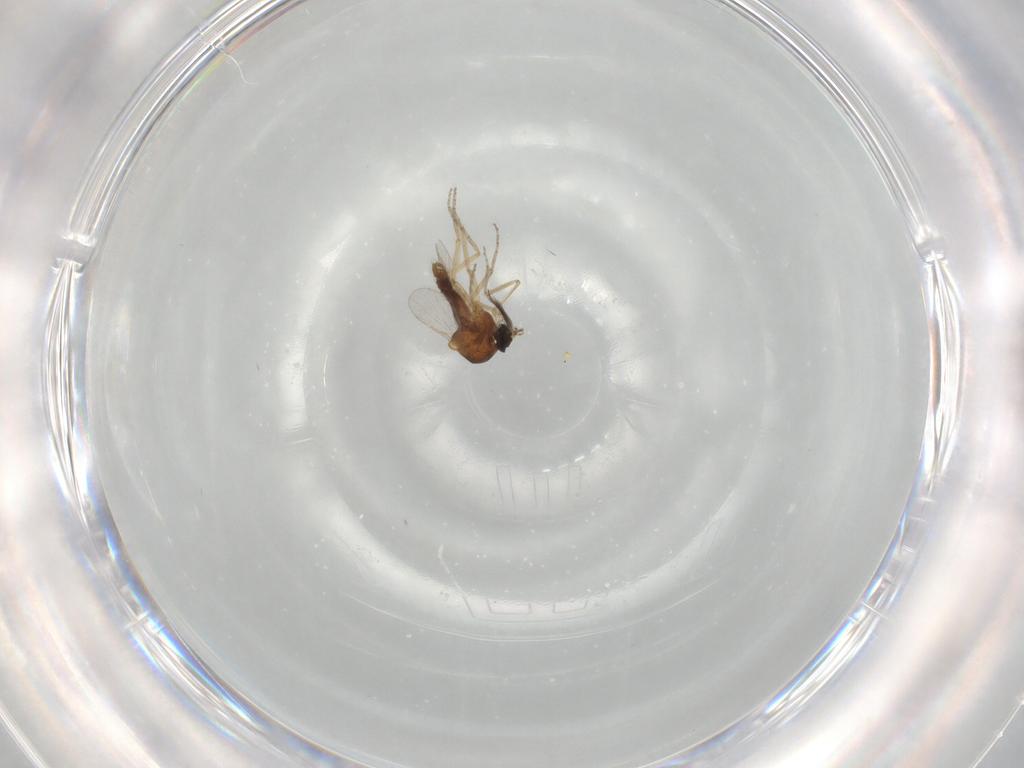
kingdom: Animalia
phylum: Arthropoda
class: Insecta
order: Diptera
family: Ceratopogonidae
